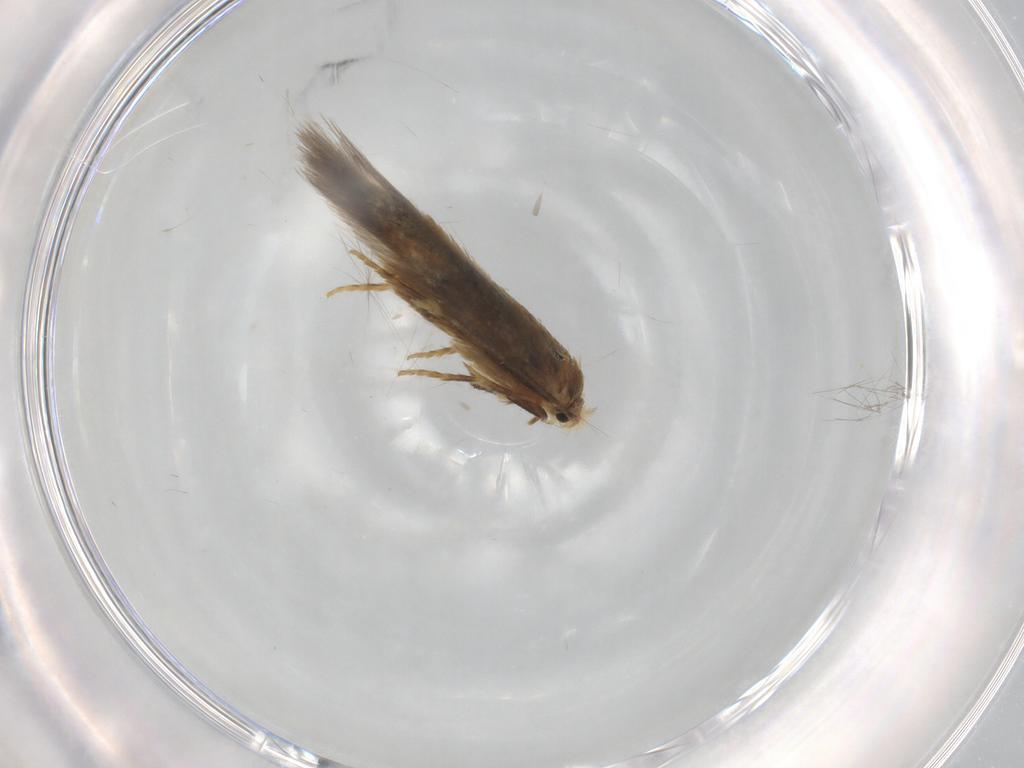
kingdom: Animalia
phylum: Arthropoda
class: Insecta
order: Lepidoptera
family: Nepticulidae
